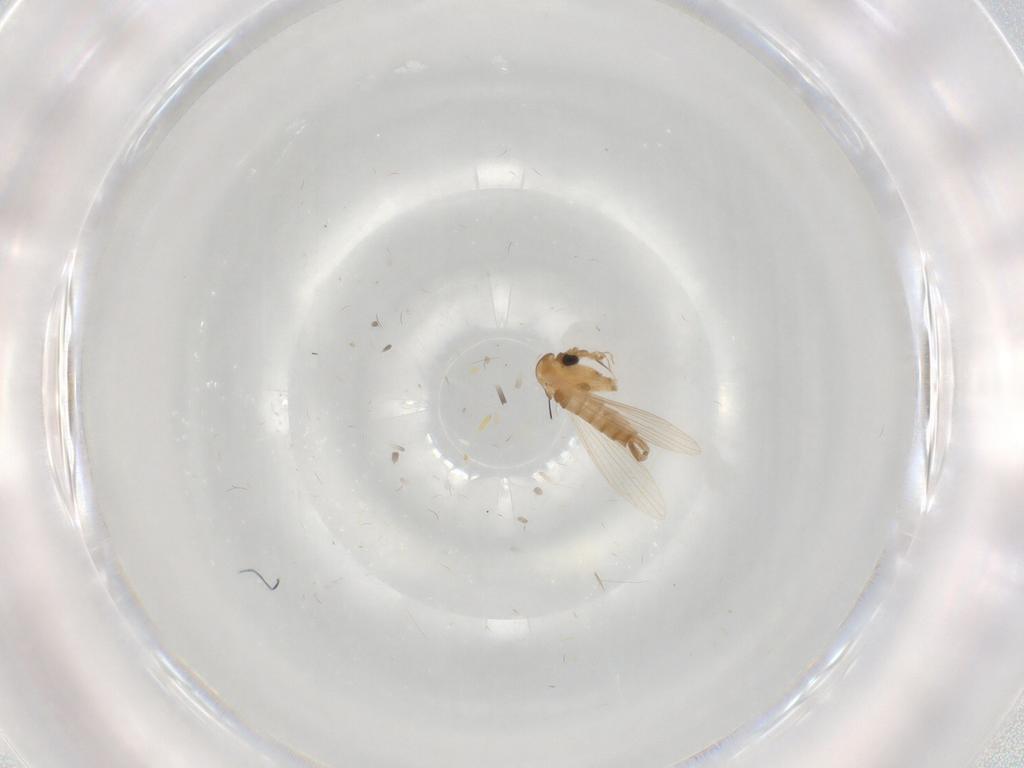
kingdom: Animalia
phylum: Arthropoda
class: Insecta
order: Diptera
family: Psychodidae
